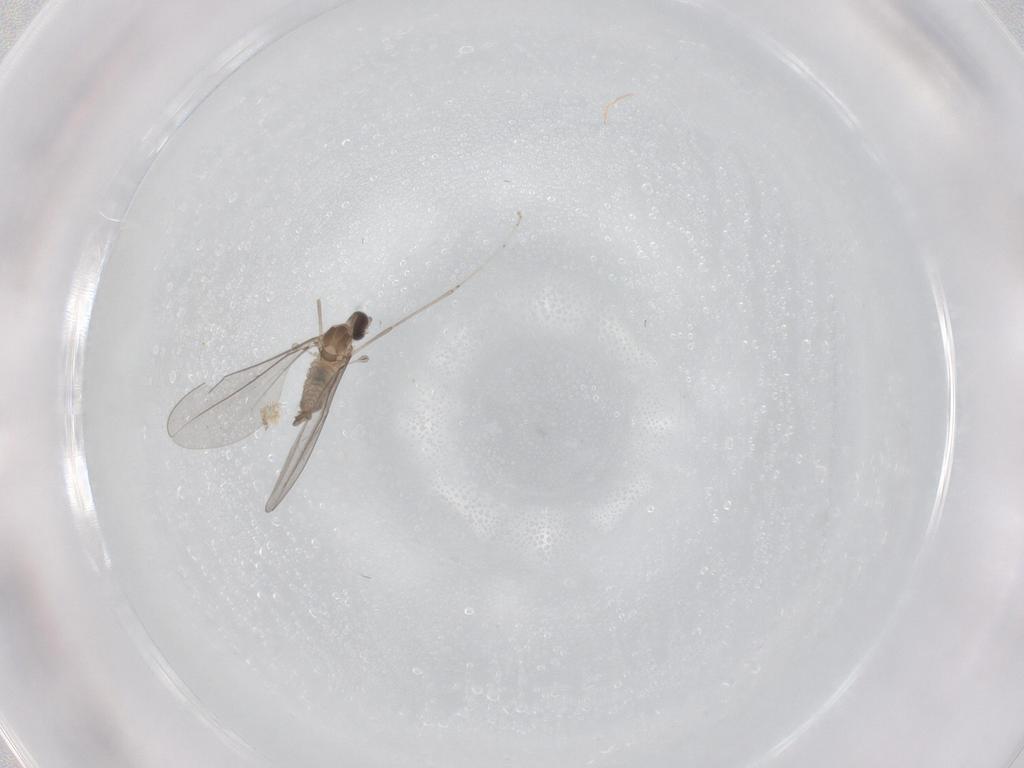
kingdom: Animalia
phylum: Arthropoda
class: Insecta
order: Diptera
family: Cecidomyiidae
